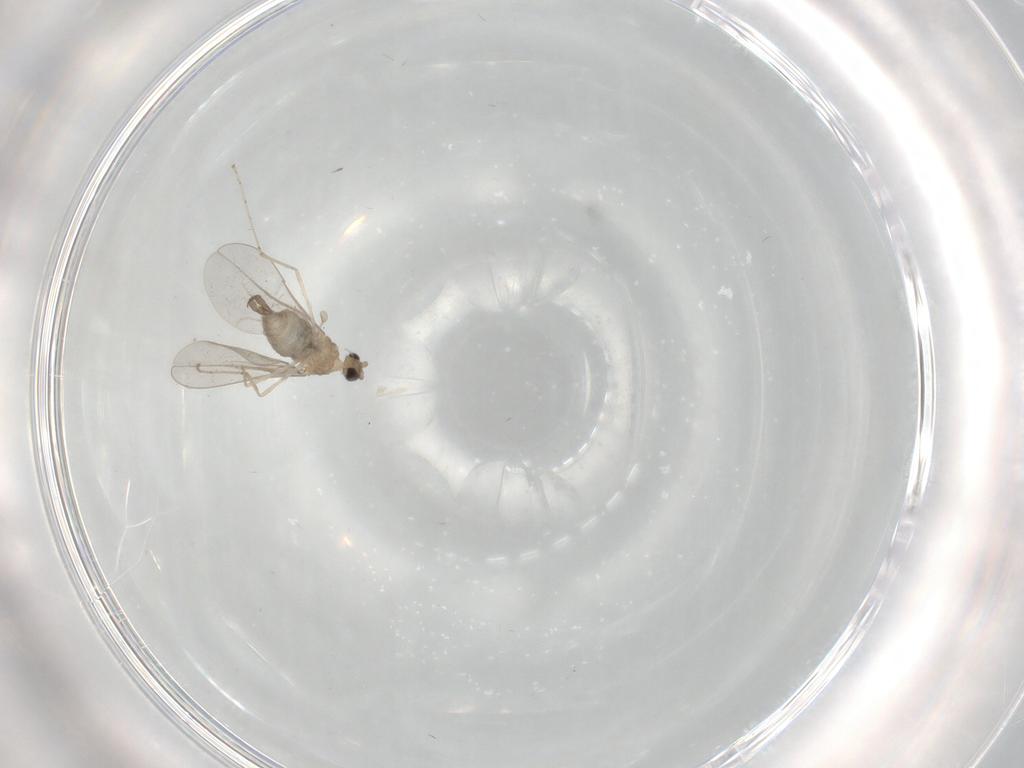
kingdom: Animalia
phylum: Arthropoda
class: Insecta
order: Diptera
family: Cecidomyiidae
